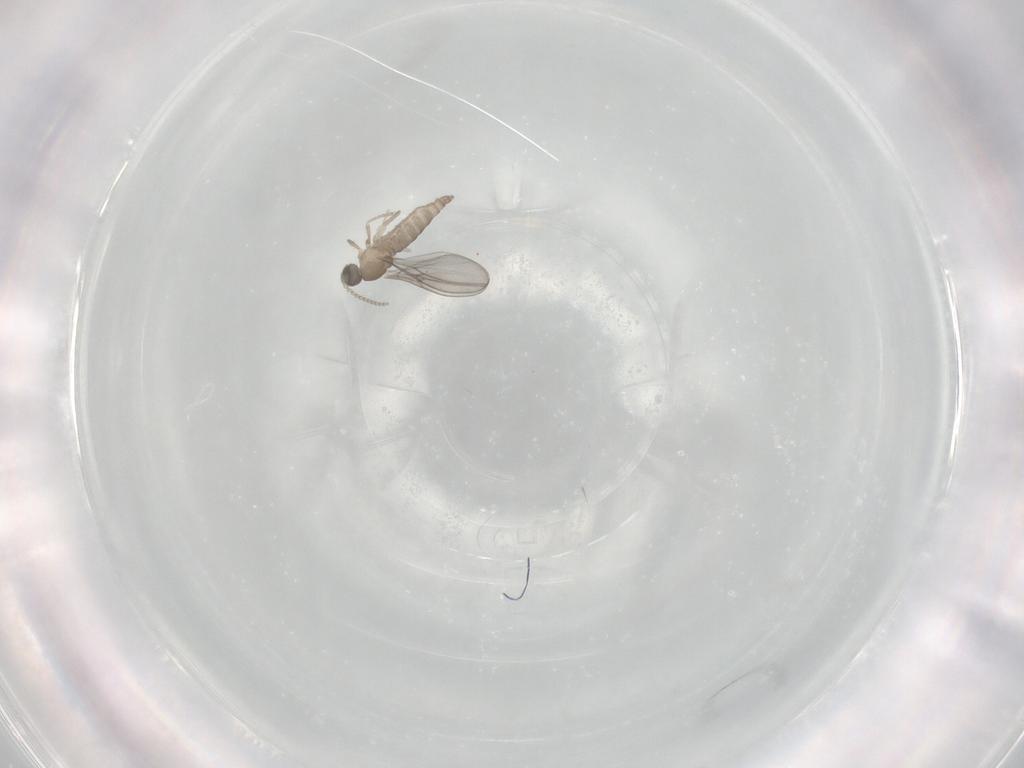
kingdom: Animalia
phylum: Arthropoda
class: Insecta
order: Diptera
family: Cecidomyiidae
